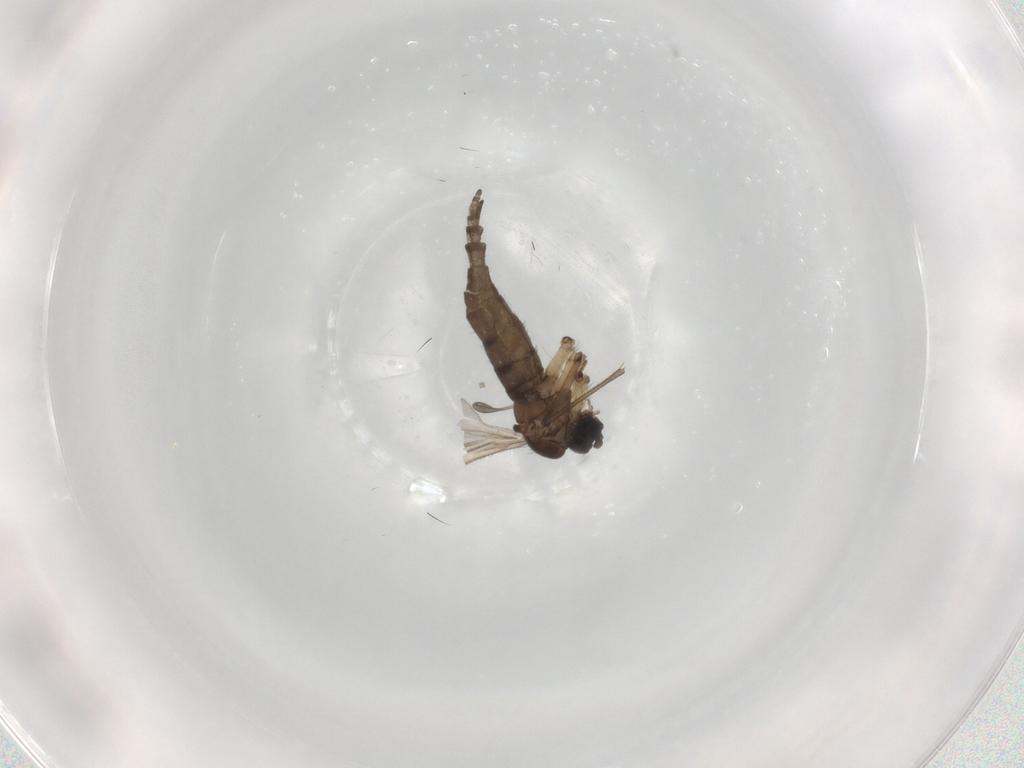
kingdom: Animalia
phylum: Arthropoda
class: Insecta
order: Diptera
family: Sciaridae
